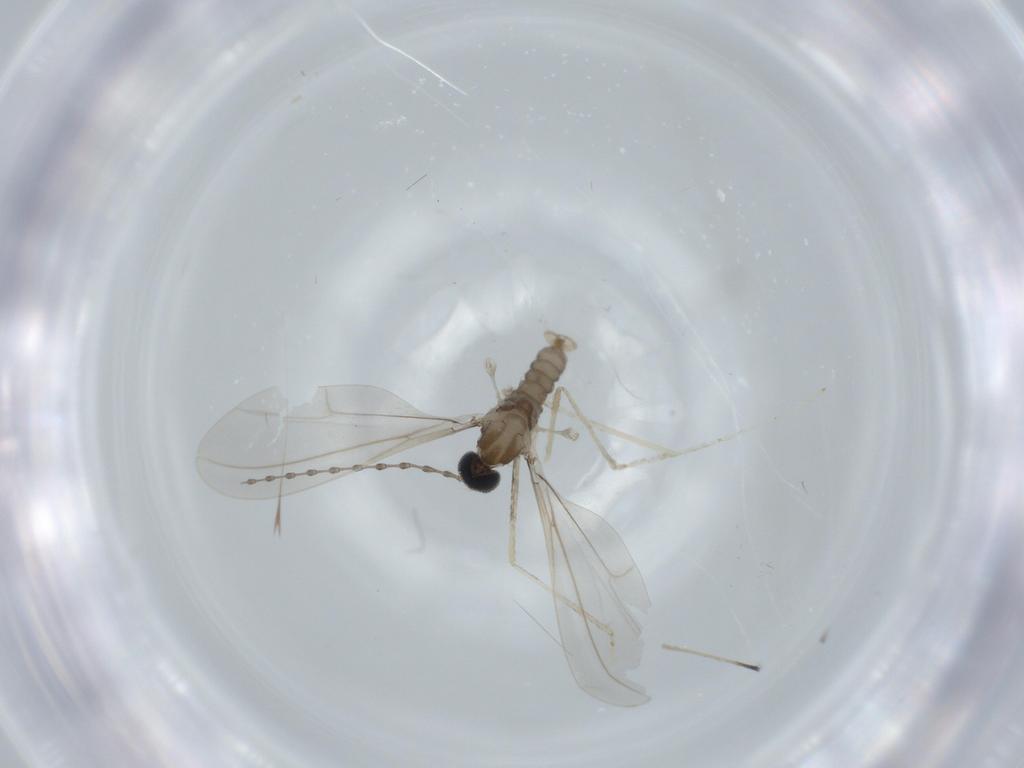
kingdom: Animalia
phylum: Arthropoda
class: Insecta
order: Diptera
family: Cecidomyiidae
